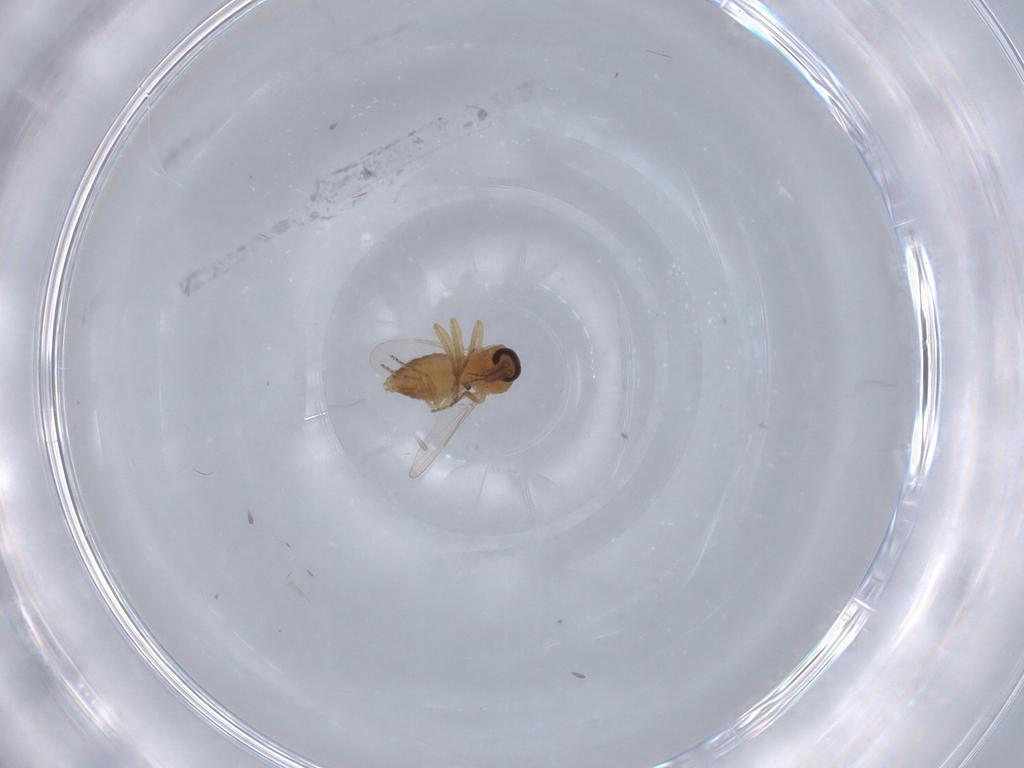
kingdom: Animalia
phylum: Arthropoda
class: Insecta
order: Diptera
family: Ceratopogonidae
